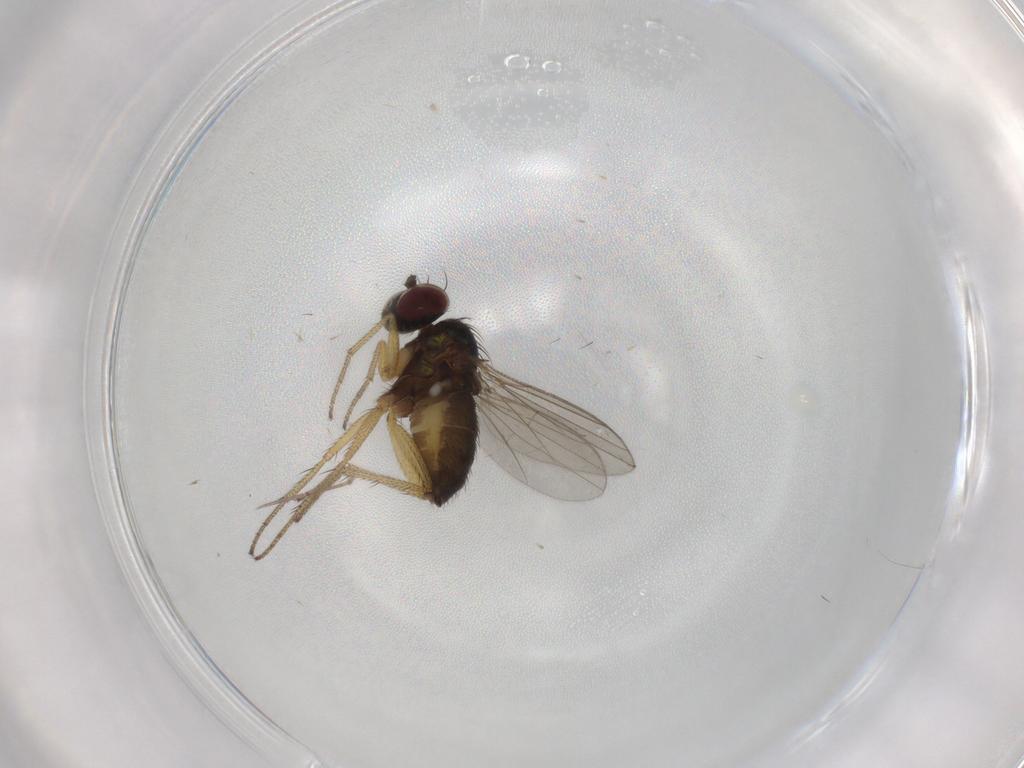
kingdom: Animalia
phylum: Arthropoda
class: Insecta
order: Diptera
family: Dolichopodidae
